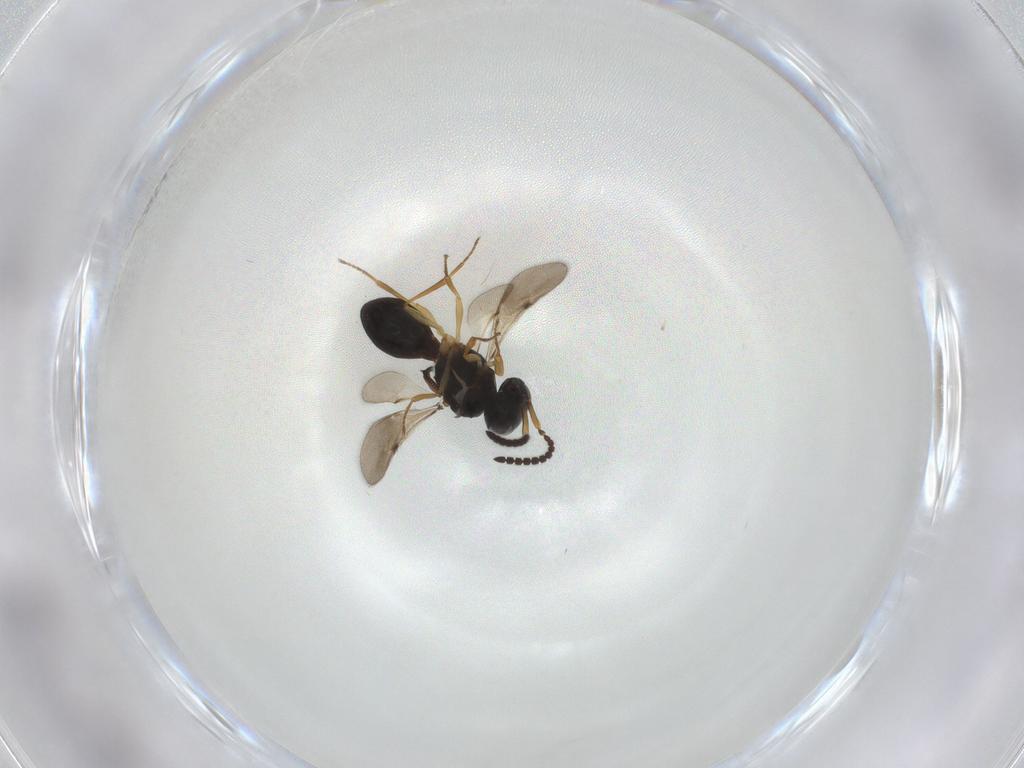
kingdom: Animalia
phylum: Arthropoda
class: Insecta
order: Hymenoptera
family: Scelionidae
